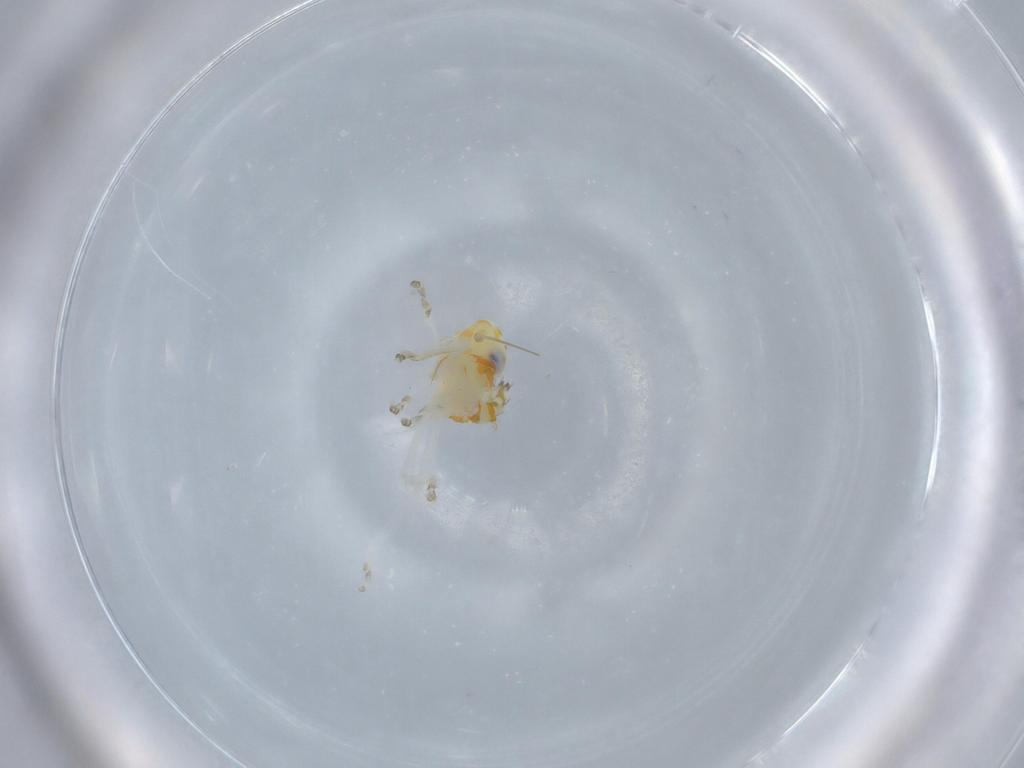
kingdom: Animalia
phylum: Arthropoda
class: Insecta
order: Hemiptera
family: Cicadellidae
